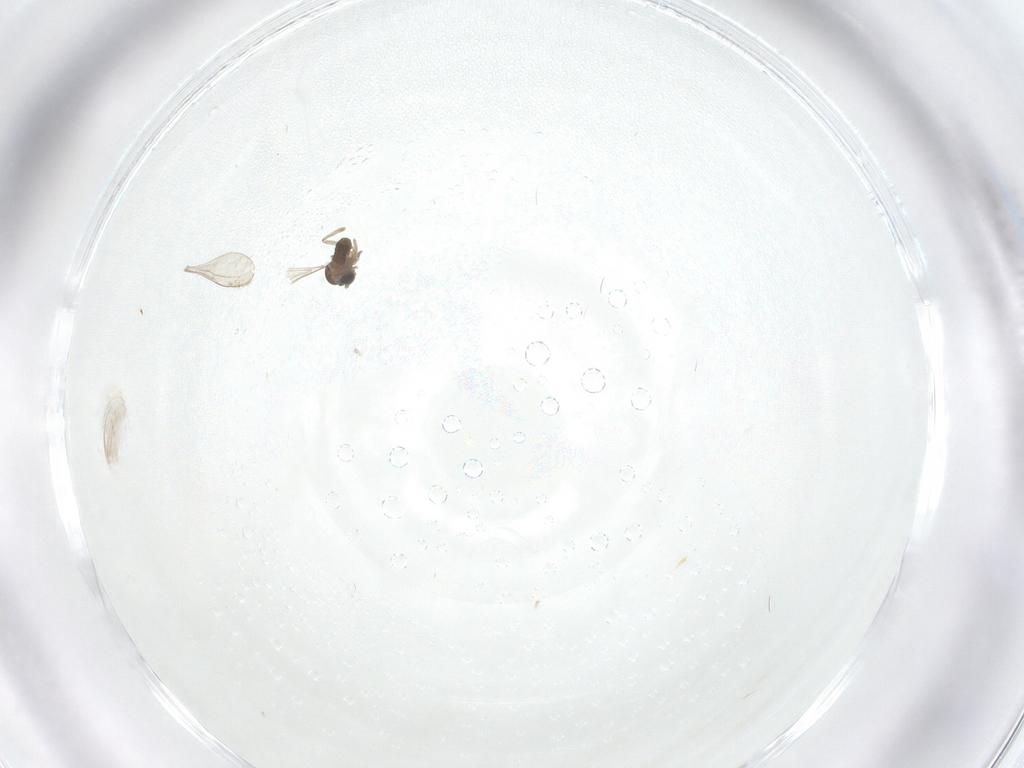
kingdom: Animalia
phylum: Arthropoda
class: Insecta
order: Diptera
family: Cecidomyiidae
